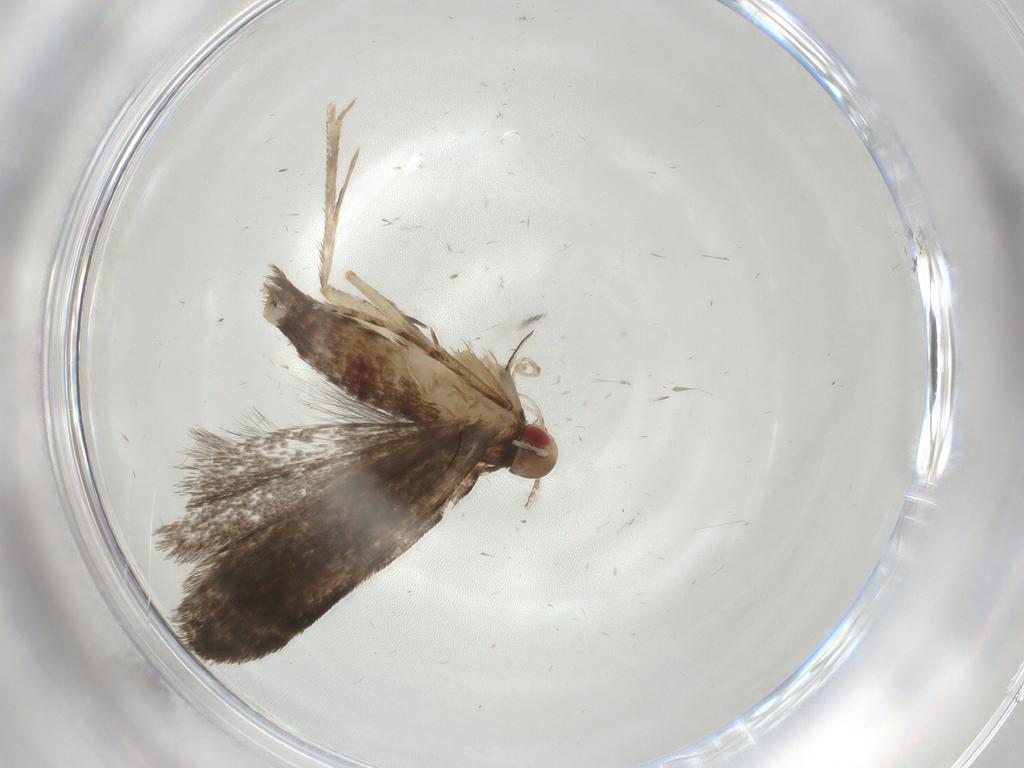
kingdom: Animalia
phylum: Arthropoda
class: Insecta
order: Lepidoptera
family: Gelechiidae
